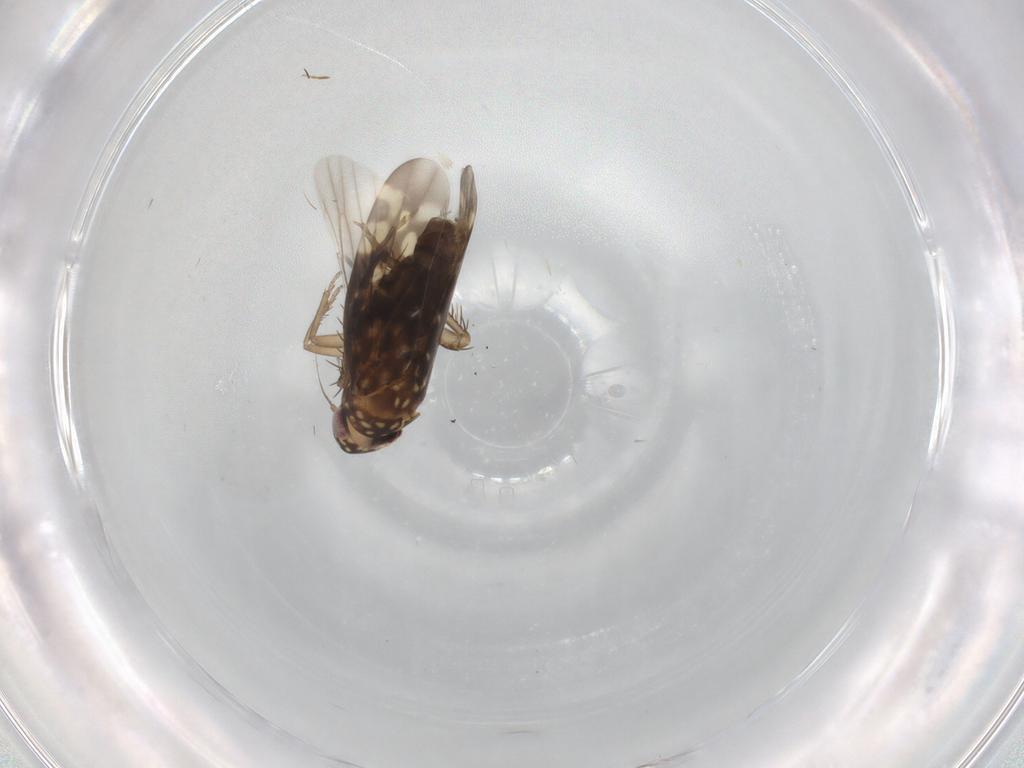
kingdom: Animalia
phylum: Arthropoda
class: Insecta
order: Hemiptera
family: Cicadellidae
